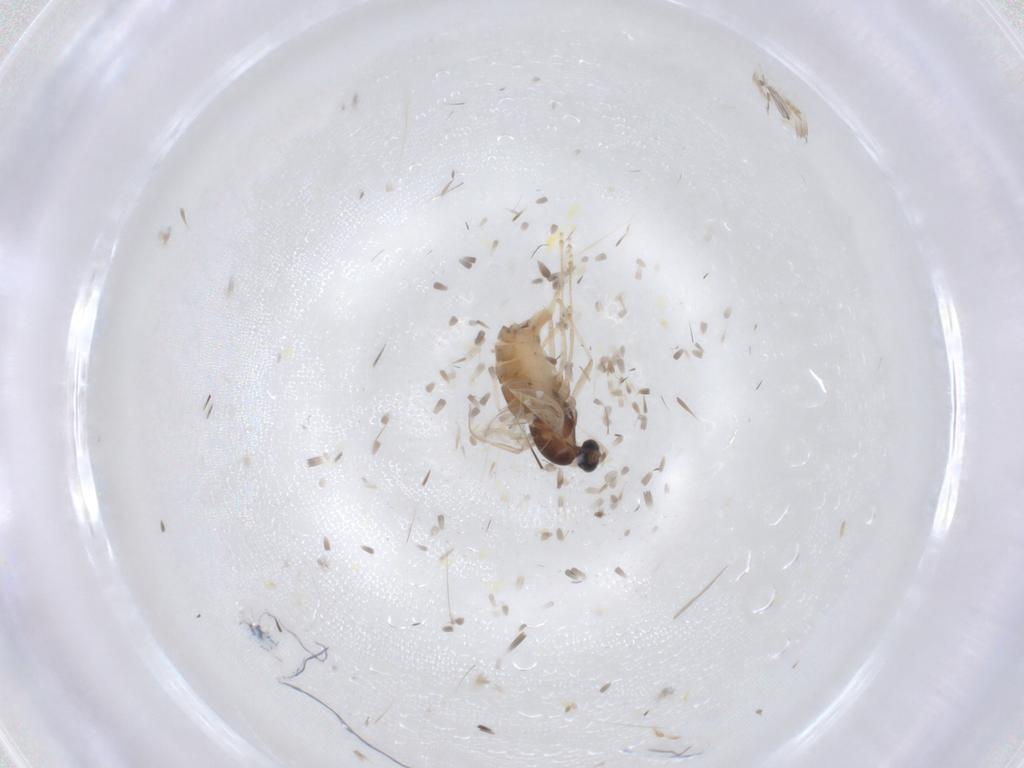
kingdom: Animalia
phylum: Arthropoda
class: Insecta
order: Diptera
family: Cecidomyiidae
